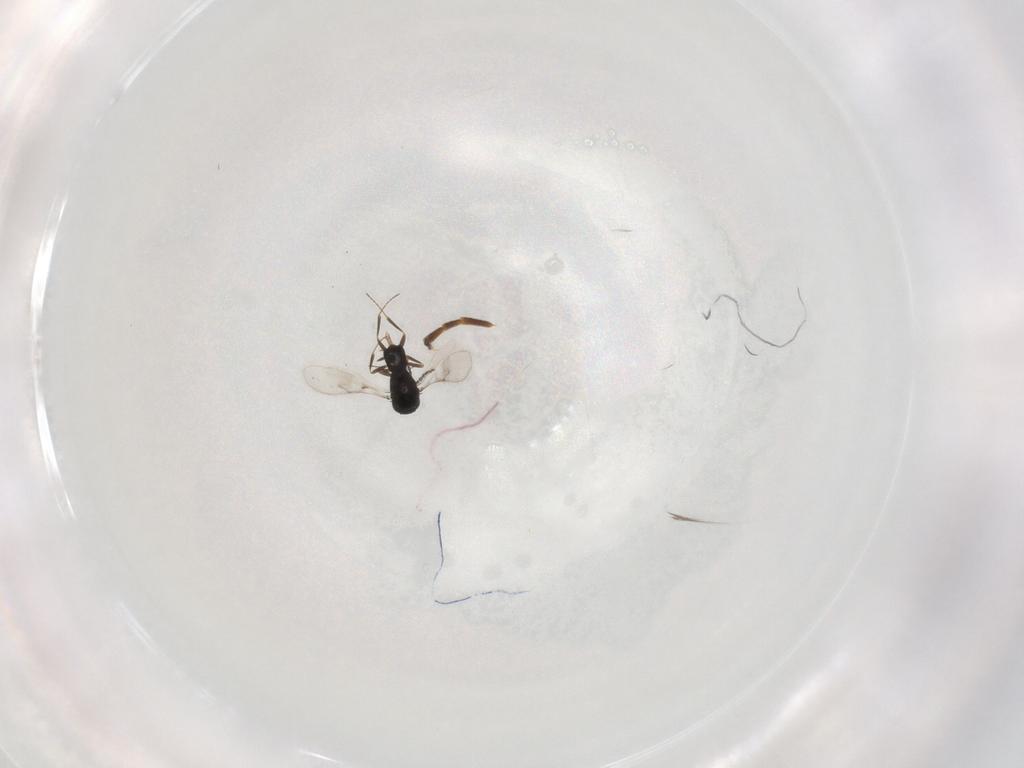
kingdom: Animalia
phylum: Arthropoda
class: Insecta
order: Hymenoptera
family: Scelionidae
